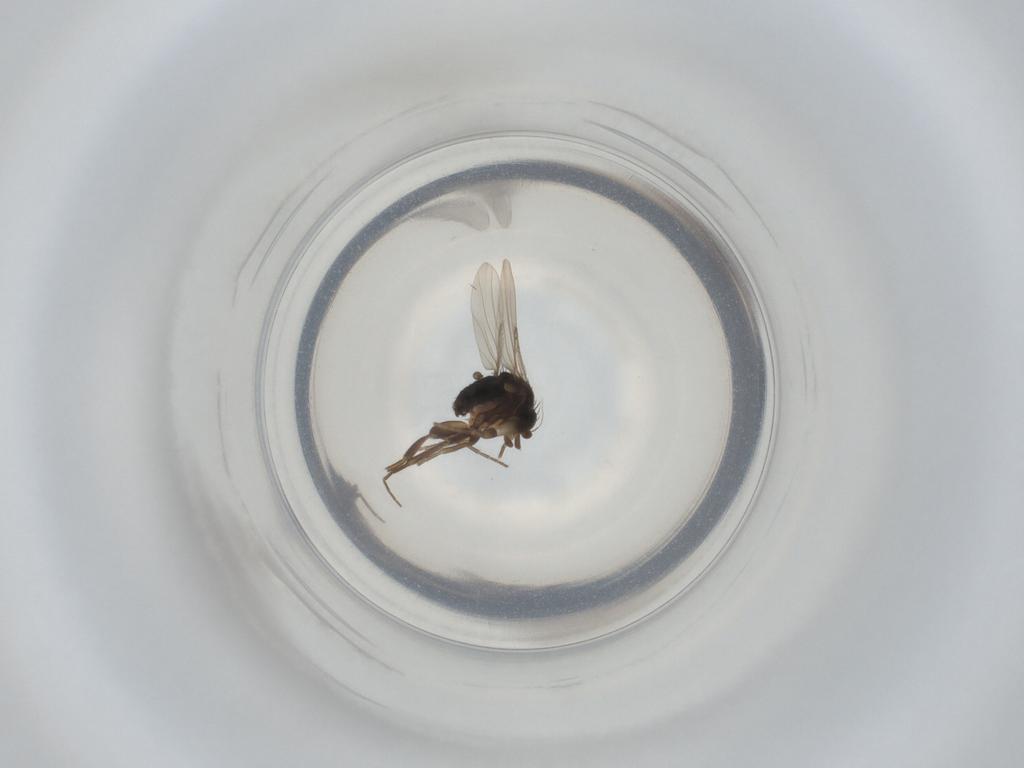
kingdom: Animalia
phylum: Arthropoda
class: Insecta
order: Diptera
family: Phoridae
